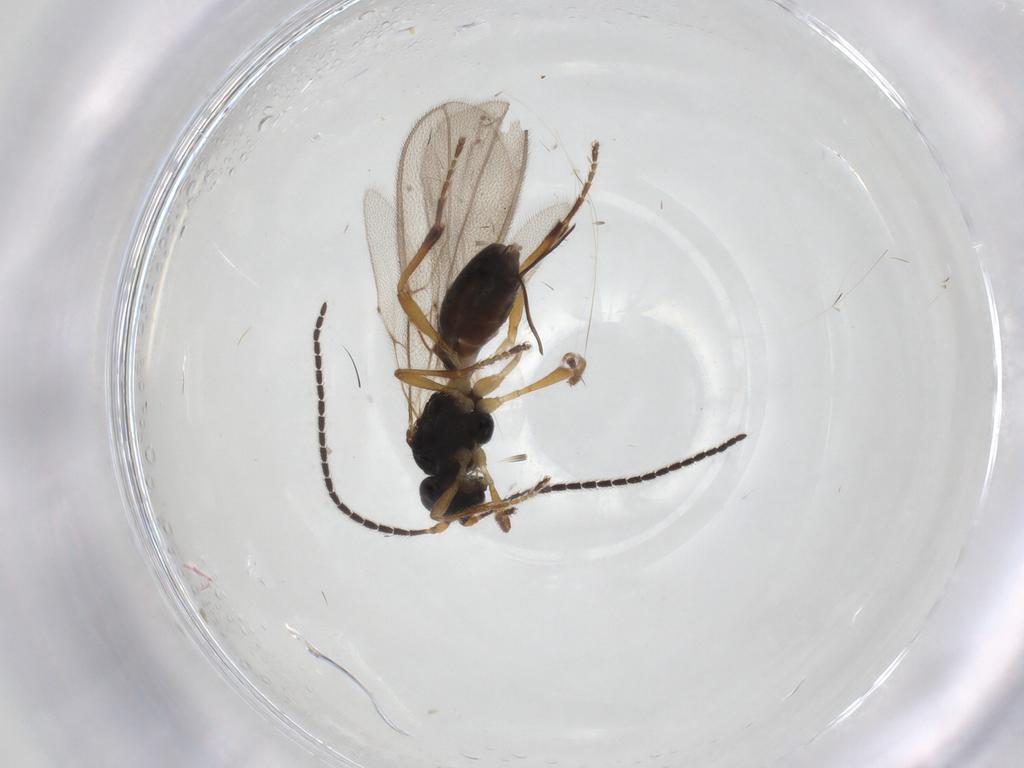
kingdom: Animalia
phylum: Arthropoda
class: Insecta
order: Hymenoptera
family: Braconidae
